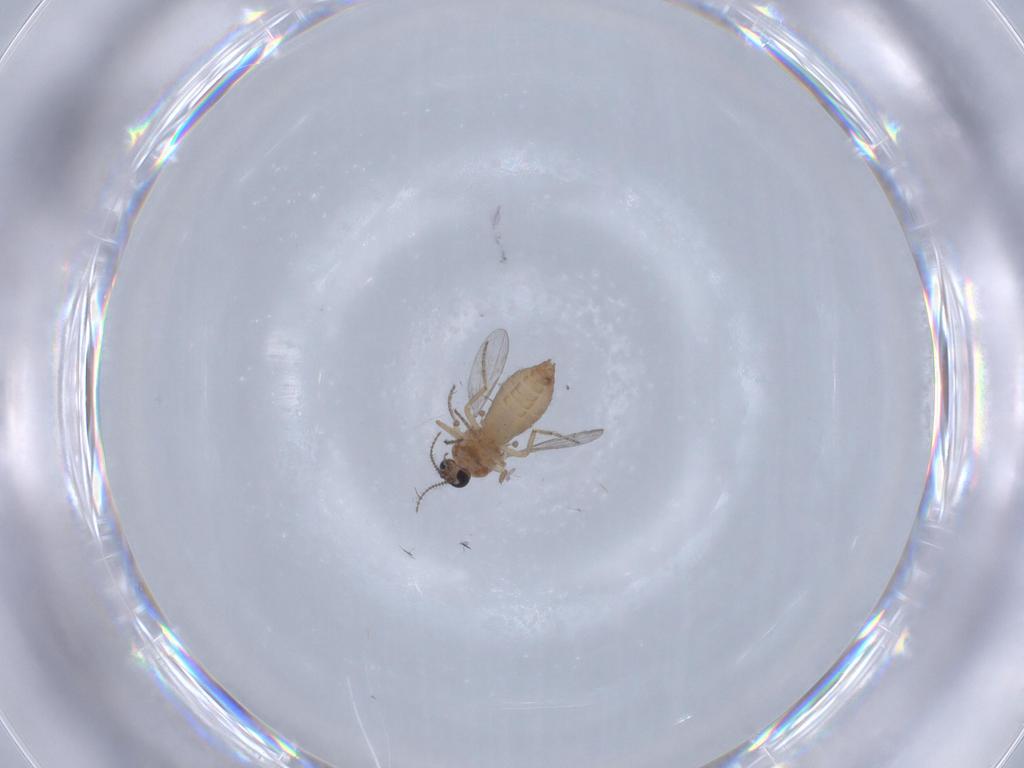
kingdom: Animalia
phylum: Arthropoda
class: Insecta
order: Diptera
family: Ceratopogonidae
